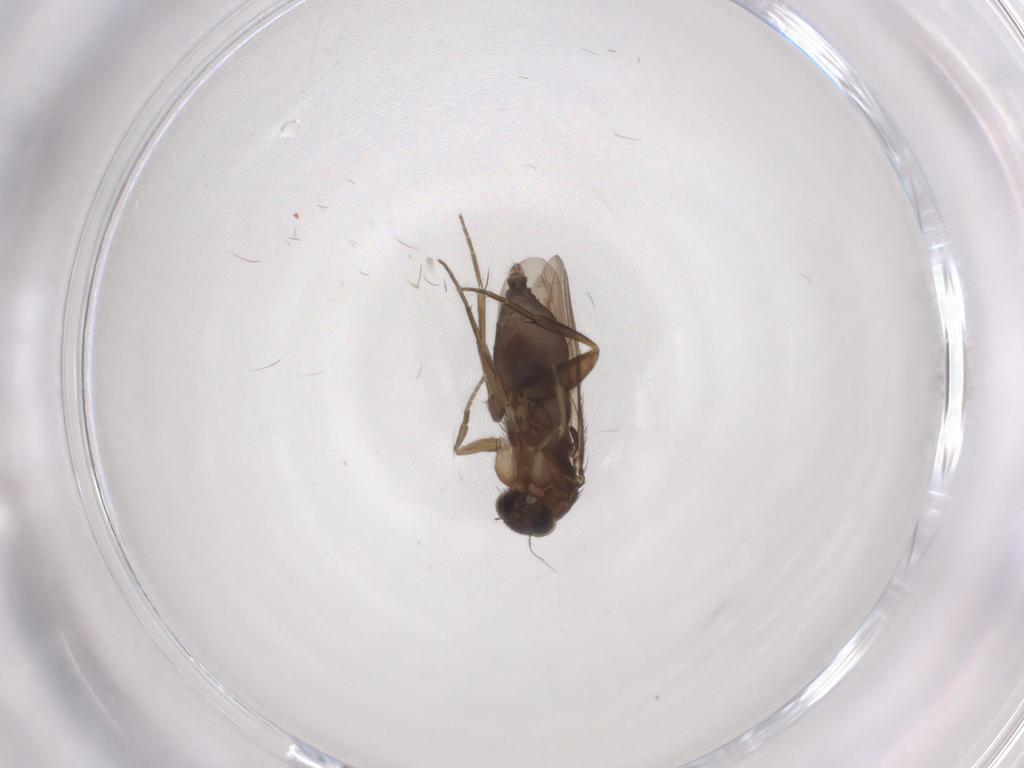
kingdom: Animalia
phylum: Arthropoda
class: Insecta
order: Diptera
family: Phoridae
